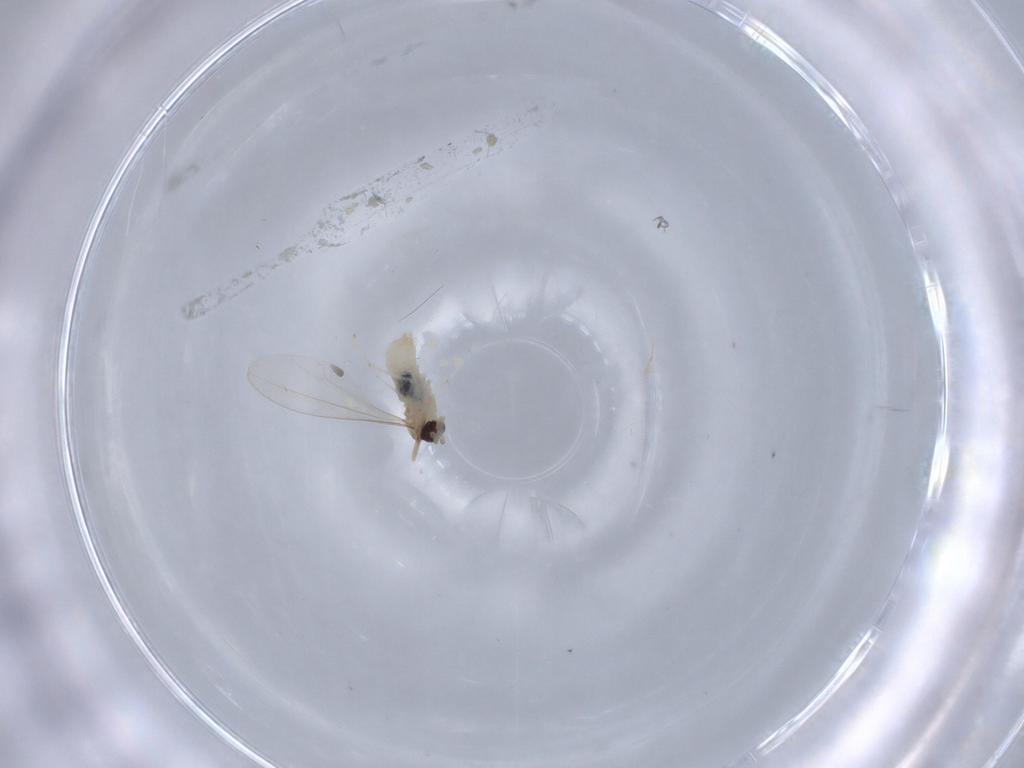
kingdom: Animalia
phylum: Arthropoda
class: Insecta
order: Diptera
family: Cecidomyiidae
